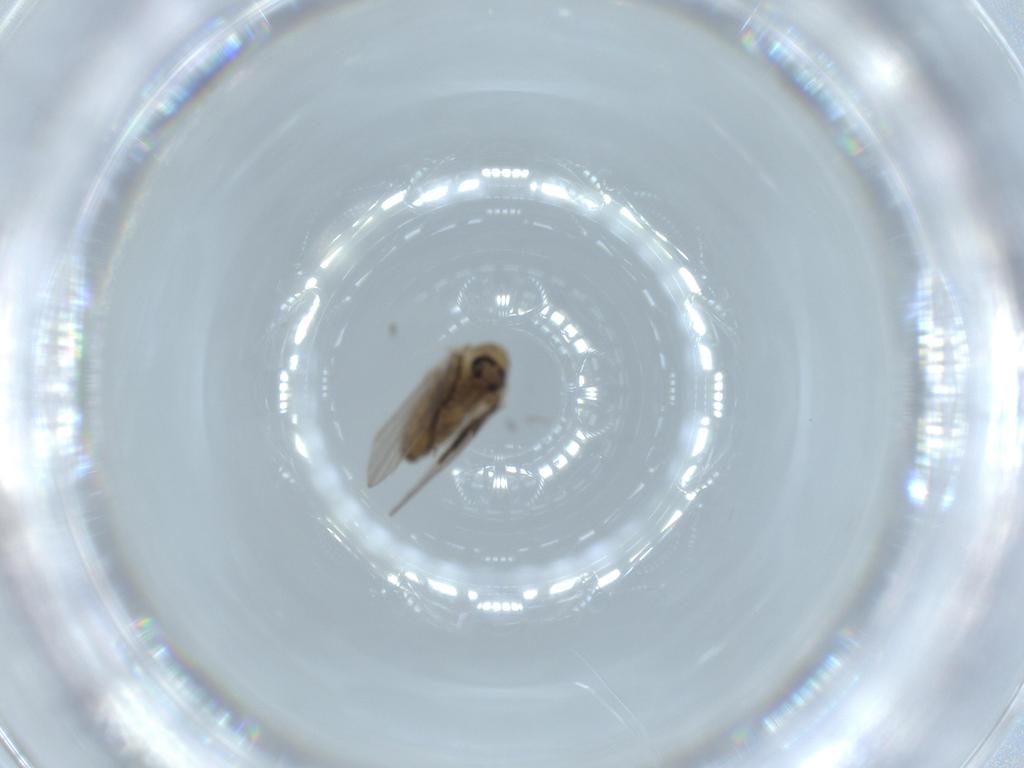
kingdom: Animalia
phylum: Arthropoda
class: Insecta
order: Diptera
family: Psychodidae
